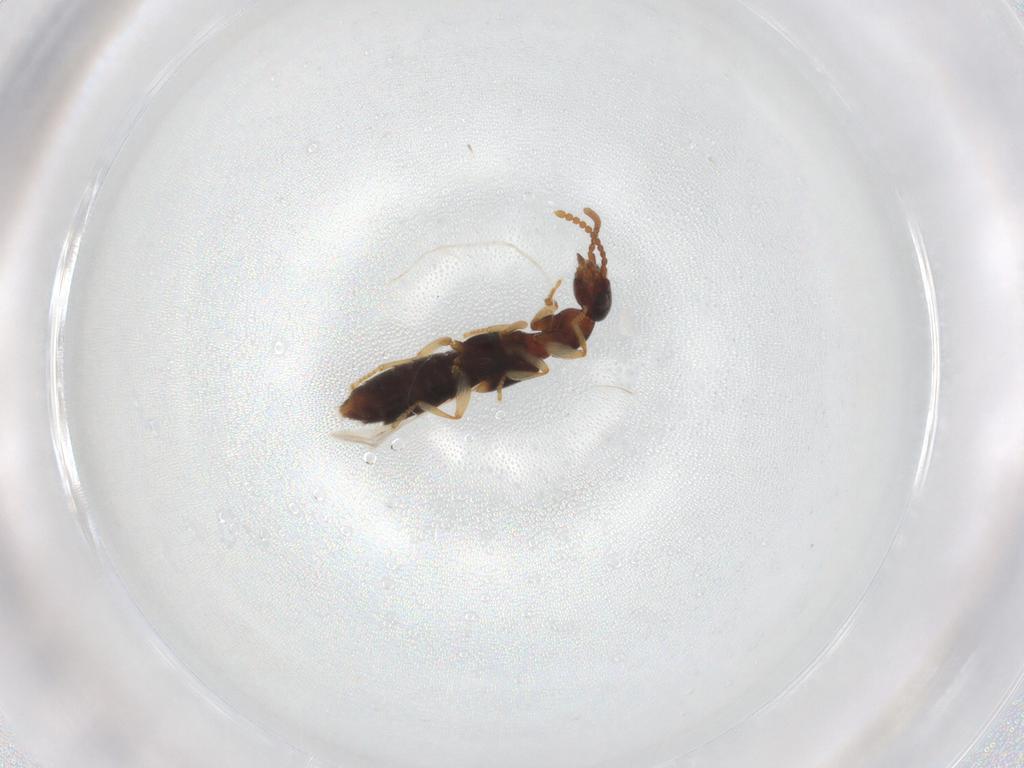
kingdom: Animalia
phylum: Arthropoda
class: Insecta
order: Coleoptera
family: Staphylinidae
